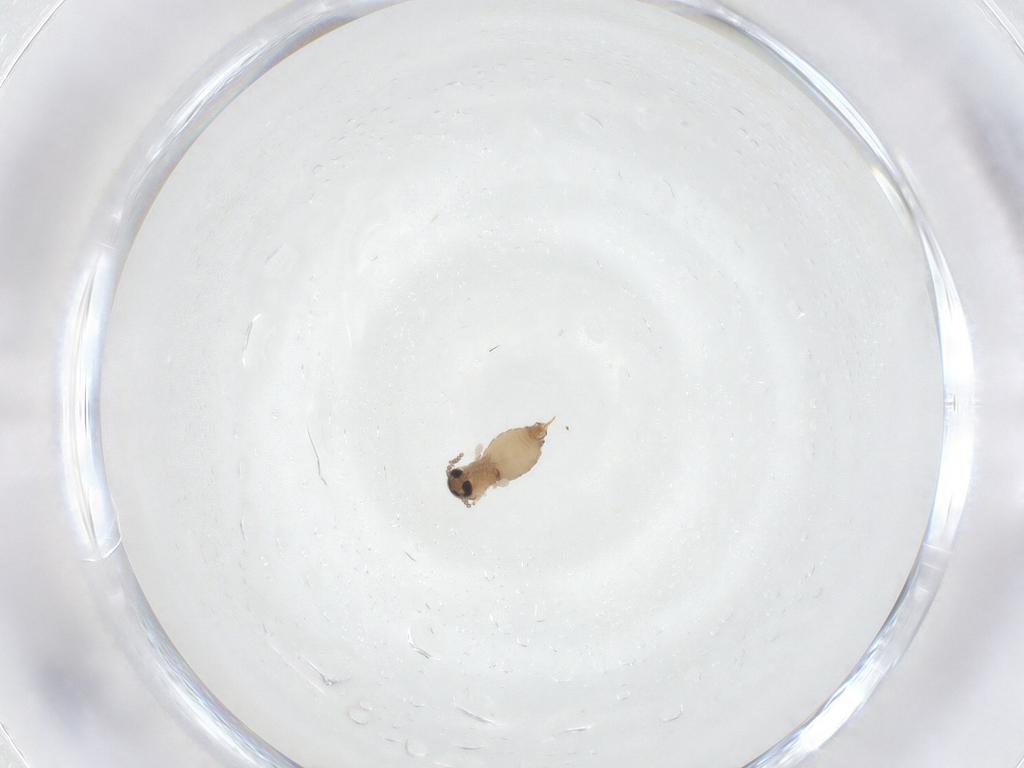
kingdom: Animalia
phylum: Arthropoda
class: Insecta
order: Diptera
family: Psychodidae
